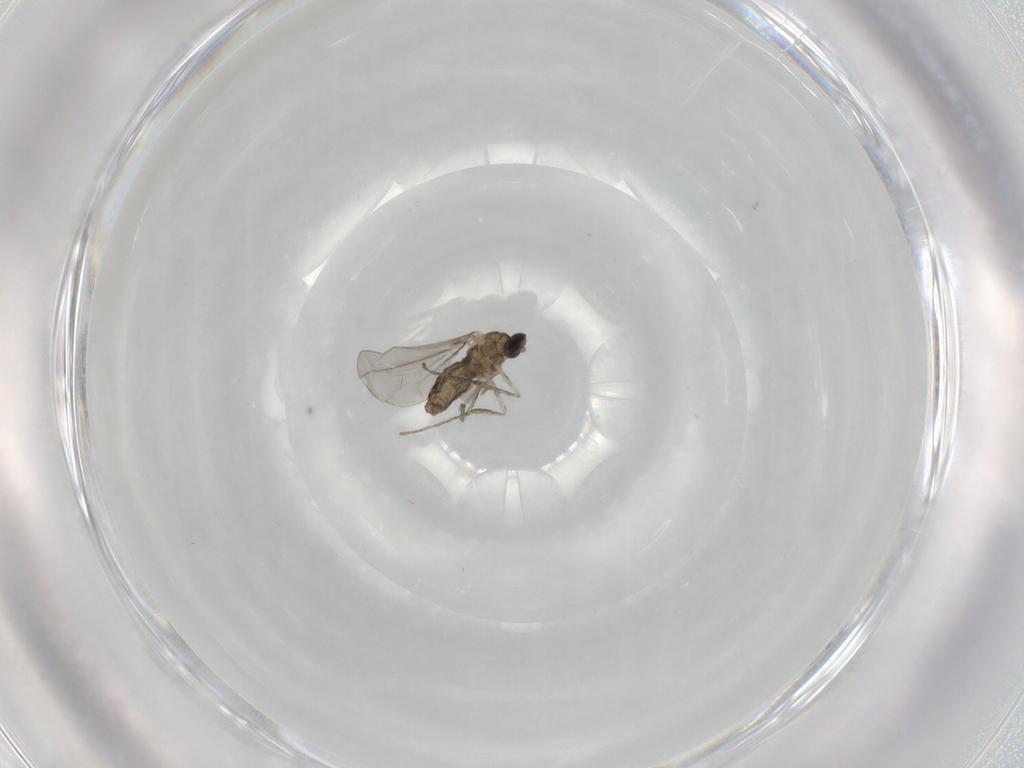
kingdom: Animalia
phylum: Arthropoda
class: Insecta
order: Diptera
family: Cecidomyiidae
